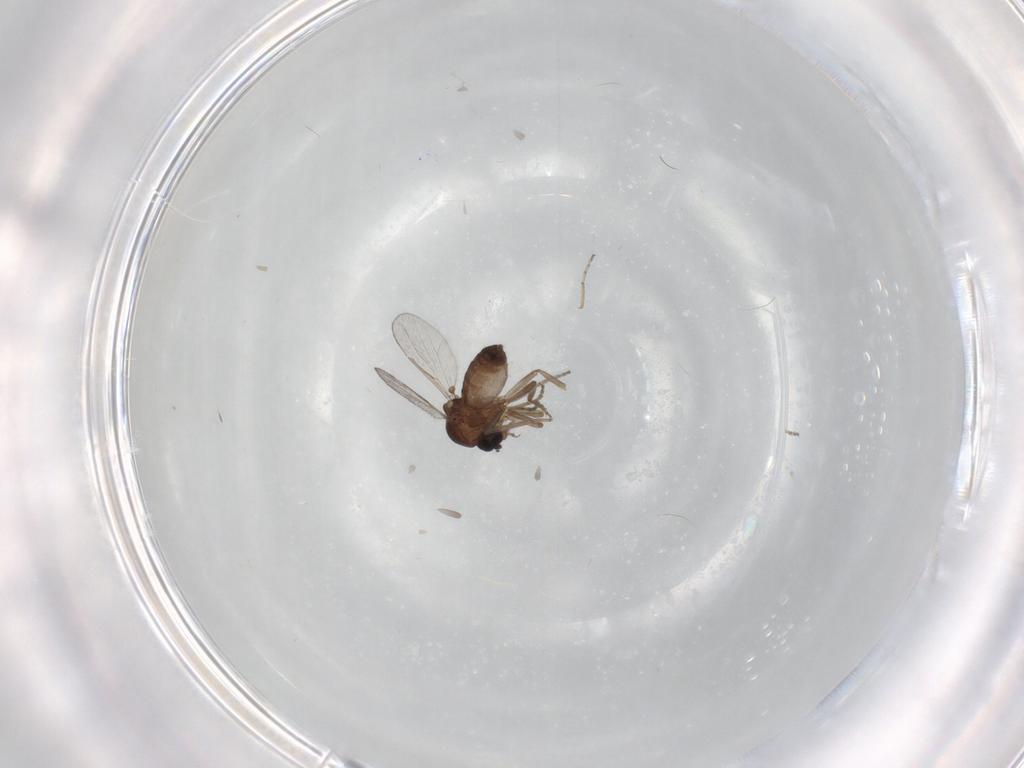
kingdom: Animalia
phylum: Arthropoda
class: Insecta
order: Diptera
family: Ceratopogonidae
